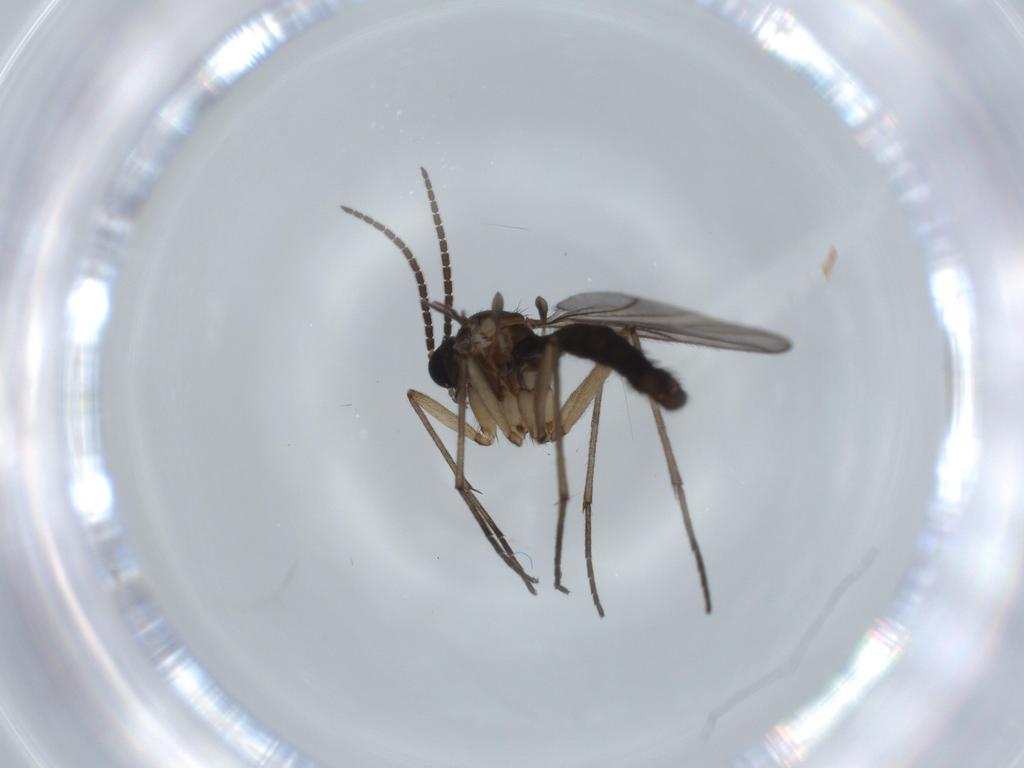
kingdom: Animalia
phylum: Arthropoda
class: Insecta
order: Diptera
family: Sciaridae
